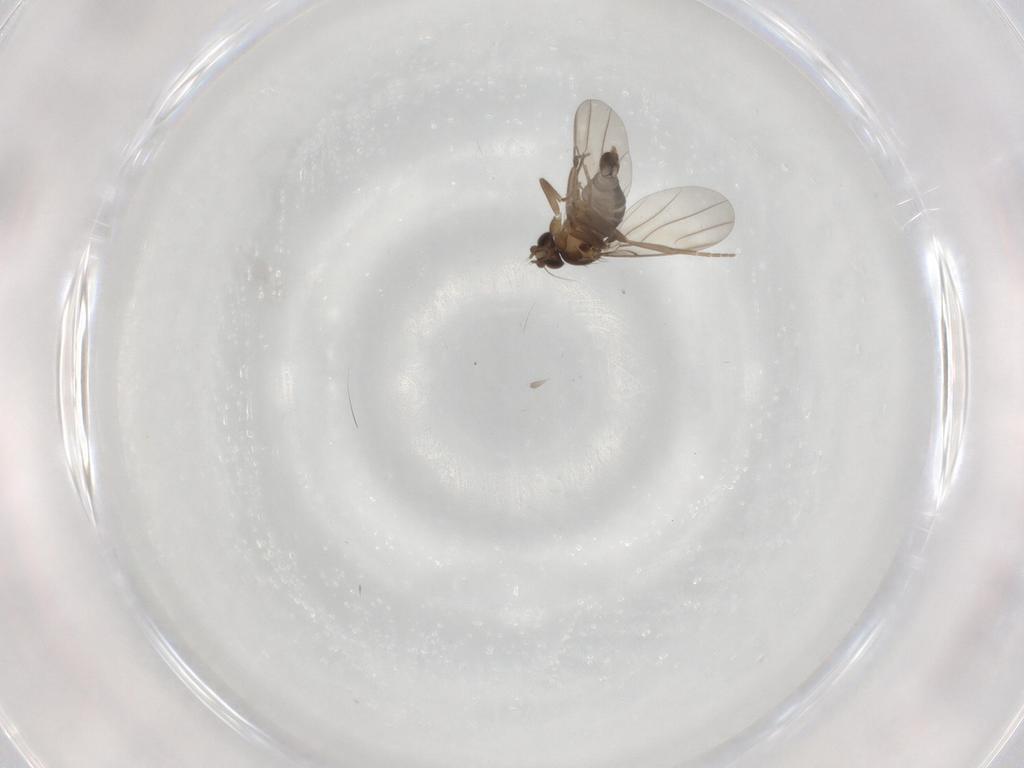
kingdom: Animalia
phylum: Arthropoda
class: Insecta
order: Diptera
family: Phoridae
